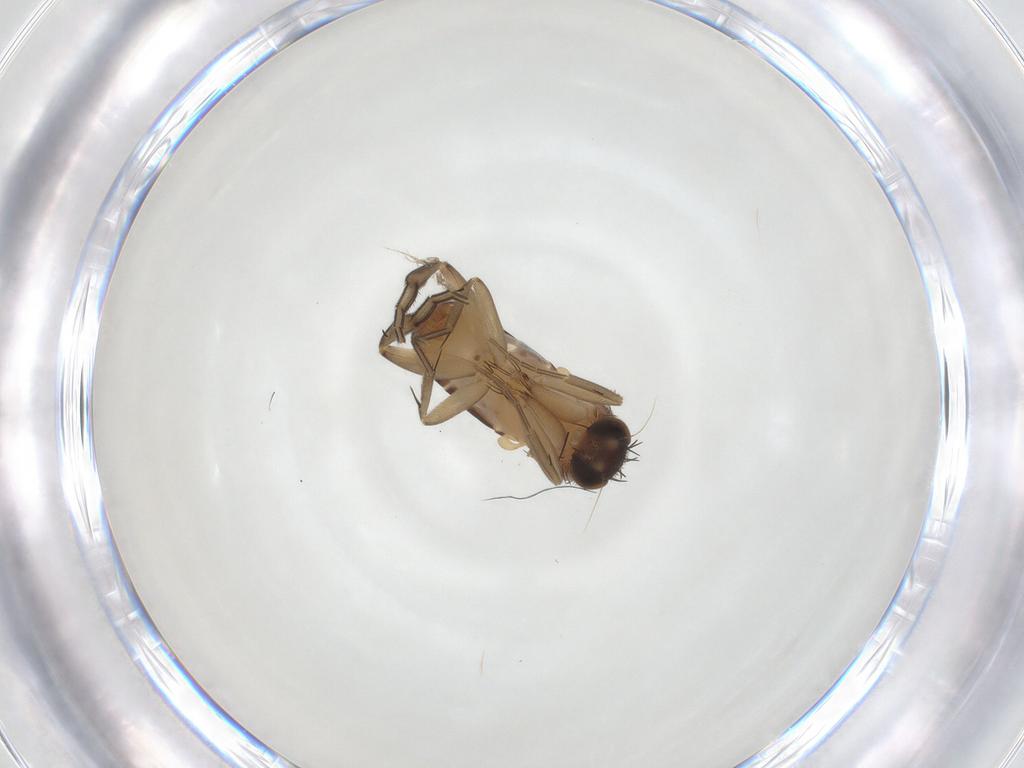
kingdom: Animalia
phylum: Arthropoda
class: Insecta
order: Diptera
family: Phoridae
